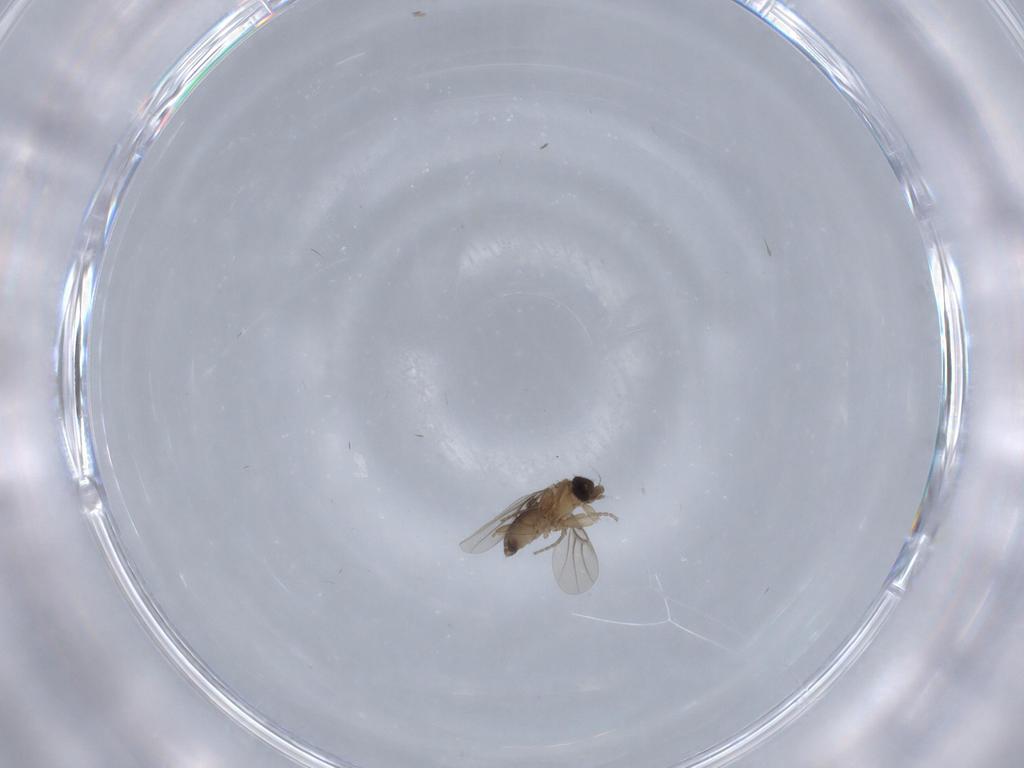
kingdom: Animalia
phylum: Arthropoda
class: Insecta
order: Diptera
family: Phoridae
